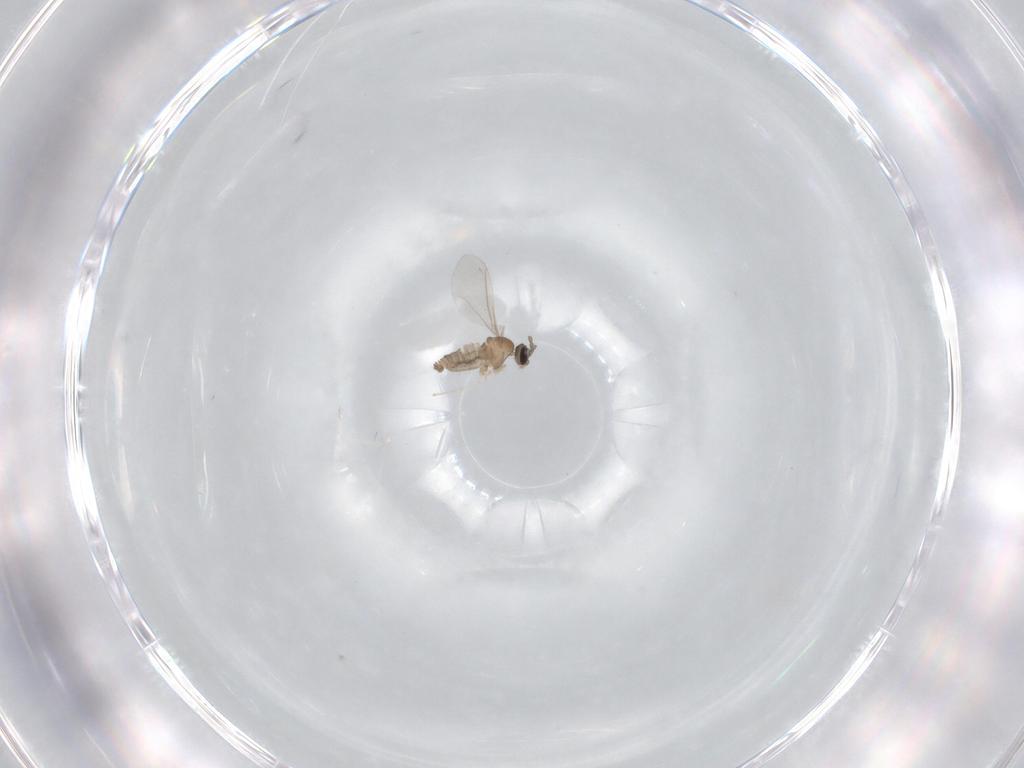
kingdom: Animalia
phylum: Arthropoda
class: Insecta
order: Diptera
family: Cecidomyiidae
